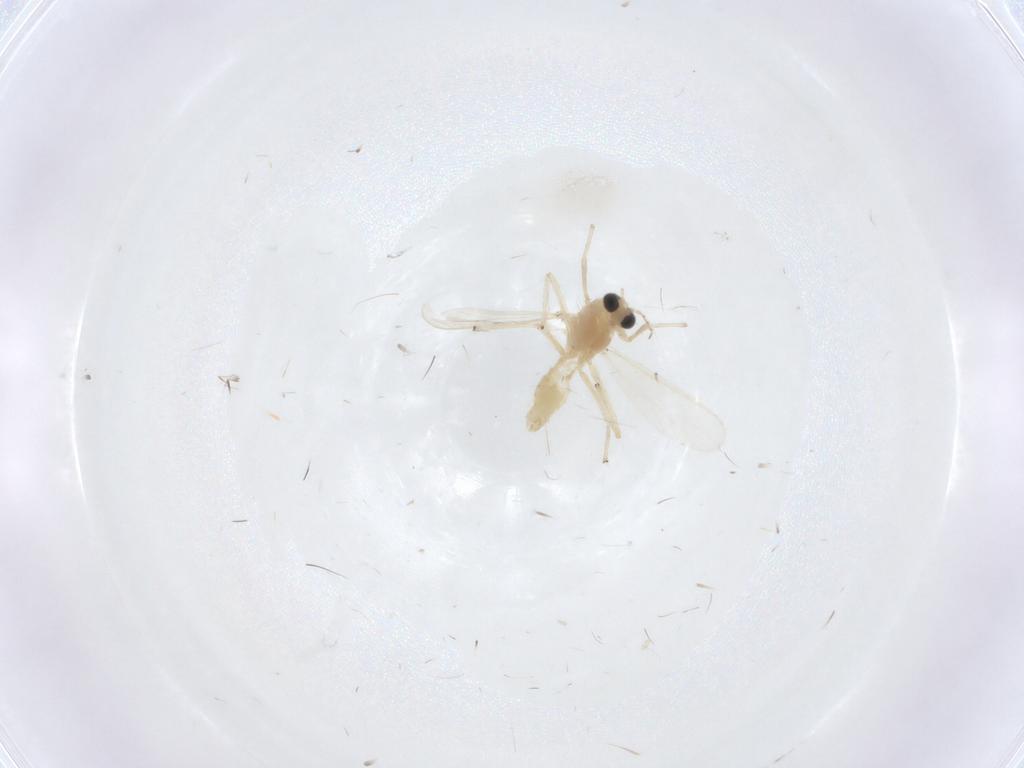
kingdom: Animalia
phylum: Arthropoda
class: Insecta
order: Diptera
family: Chironomidae
